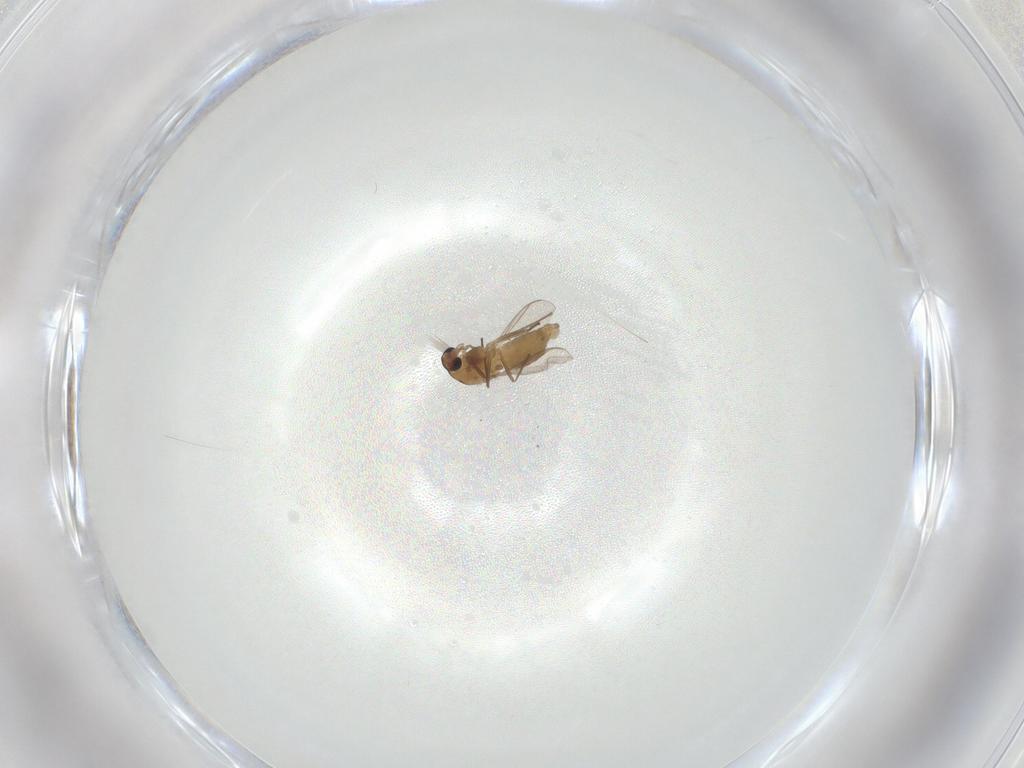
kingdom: Animalia
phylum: Arthropoda
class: Insecta
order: Diptera
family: Chironomidae
